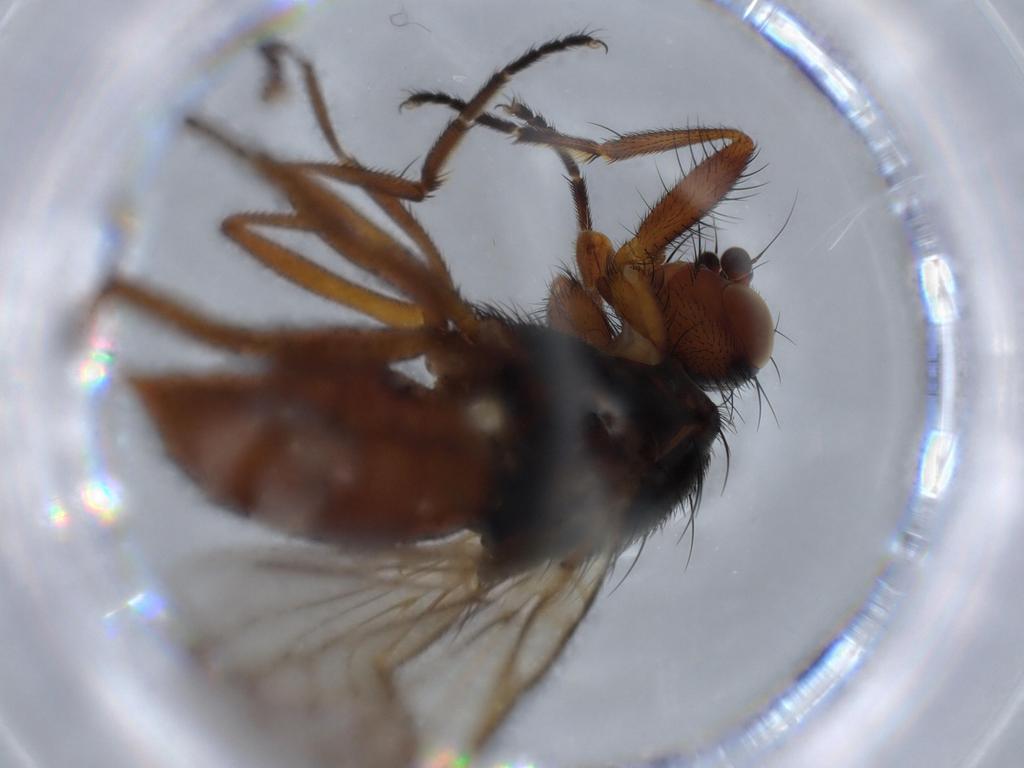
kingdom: Animalia
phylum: Arthropoda
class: Insecta
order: Diptera
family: Heleomyzidae
